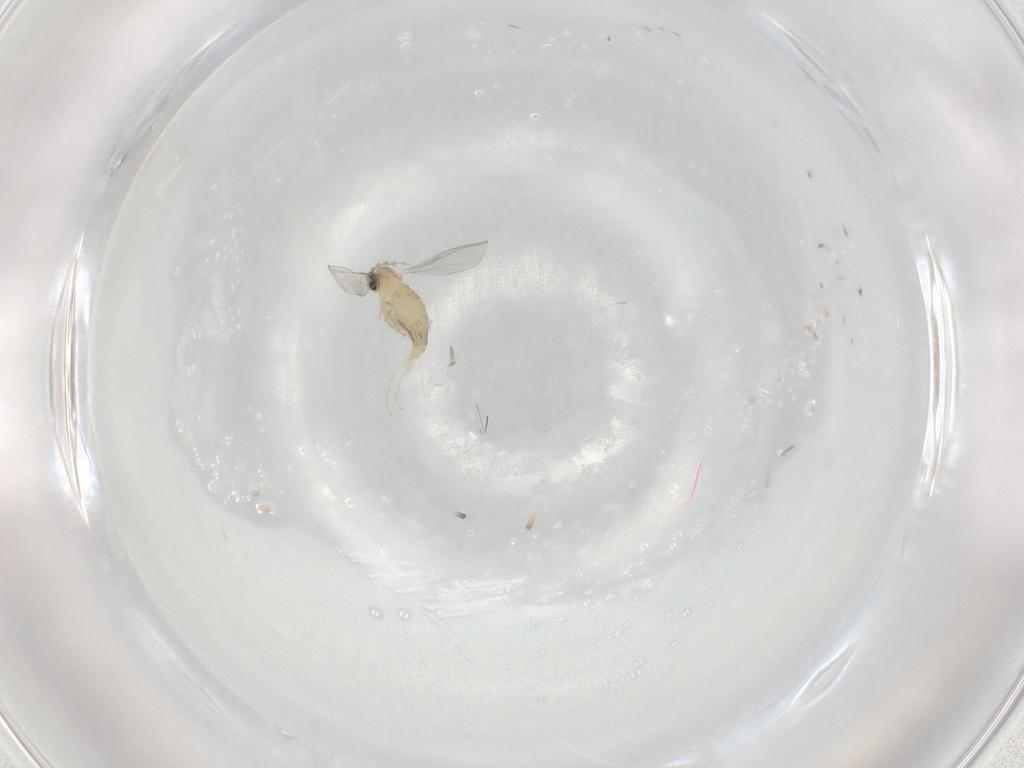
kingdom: Animalia
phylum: Arthropoda
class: Insecta
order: Diptera
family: Cecidomyiidae
